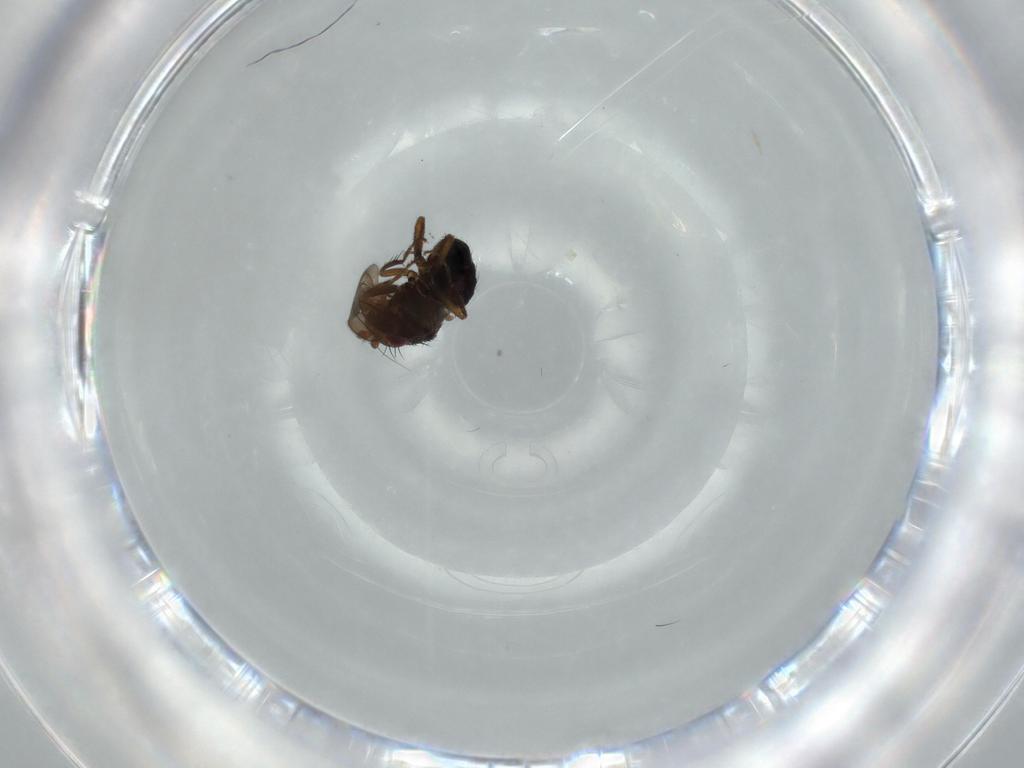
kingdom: Animalia
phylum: Arthropoda
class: Insecta
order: Diptera
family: Sphaeroceridae
